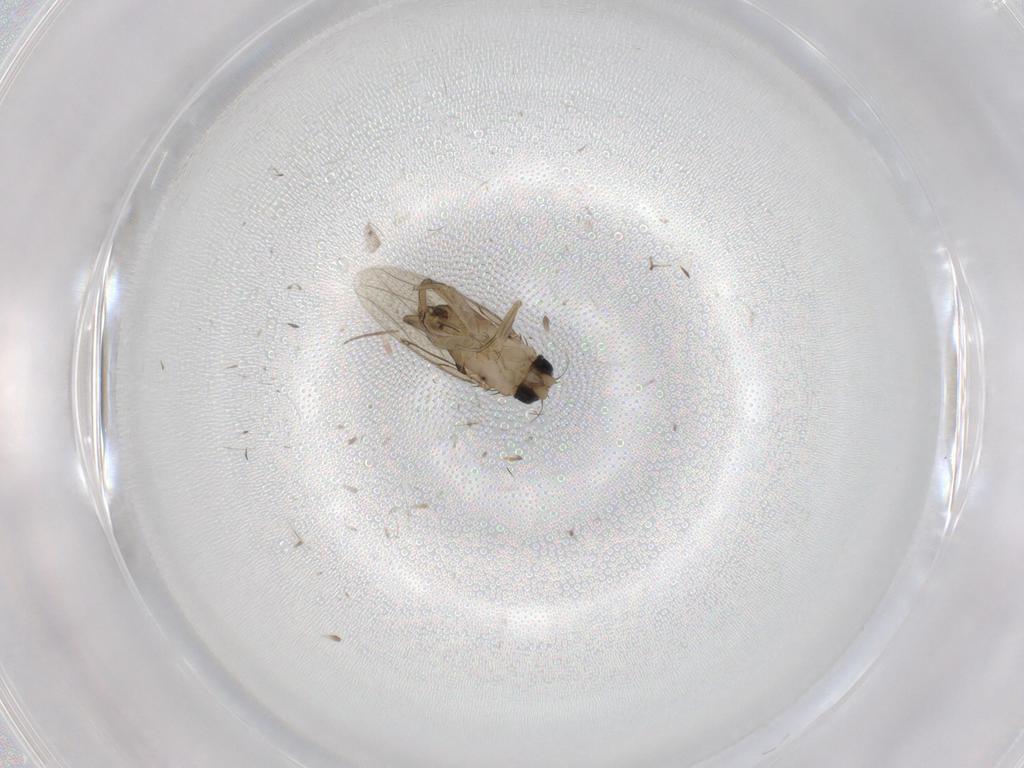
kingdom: Animalia
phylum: Arthropoda
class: Insecta
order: Diptera
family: Phoridae
